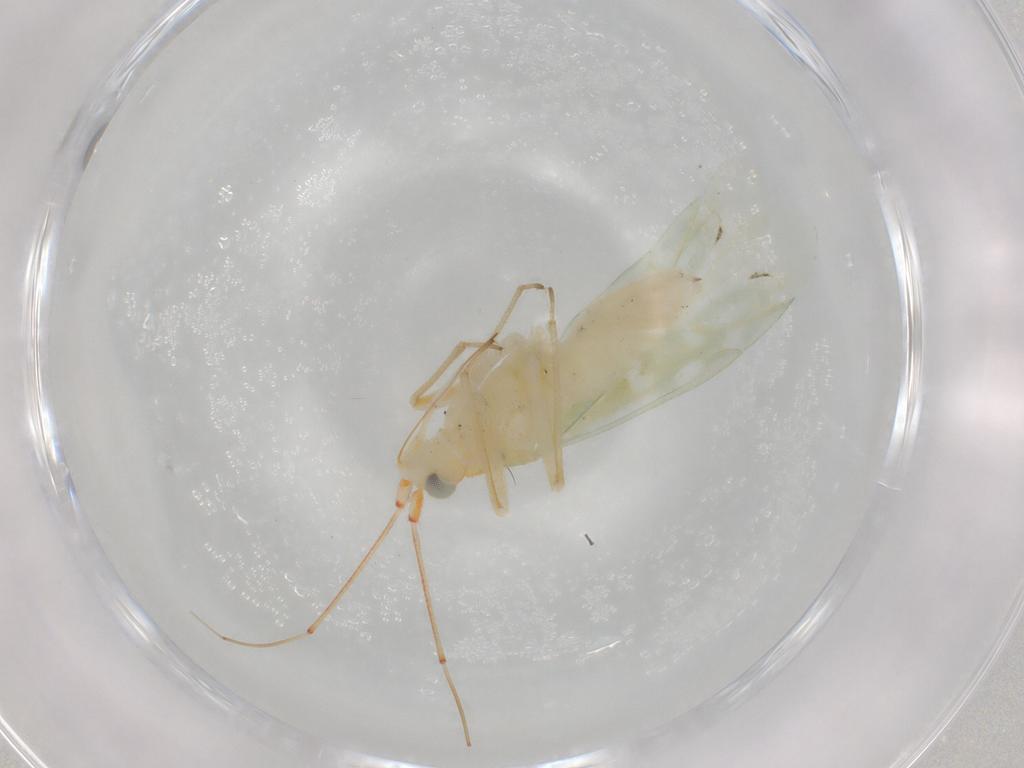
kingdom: Animalia
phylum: Arthropoda
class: Insecta
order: Hemiptera
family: Miridae
